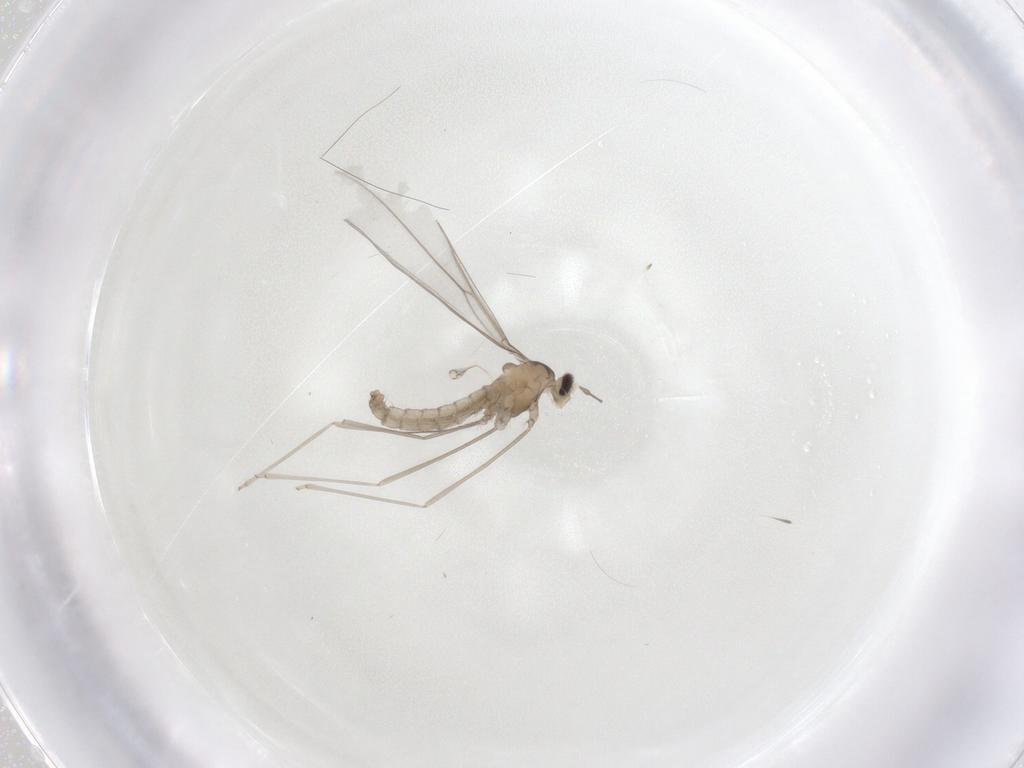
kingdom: Animalia
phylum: Arthropoda
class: Insecta
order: Diptera
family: Cecidomyiidae
